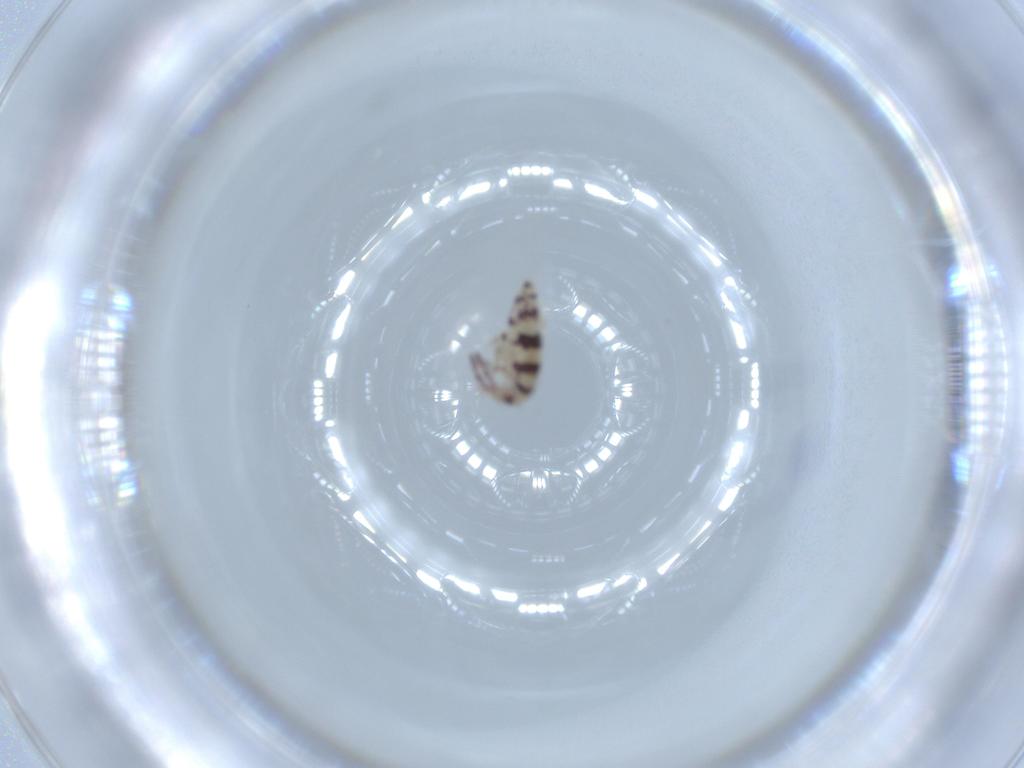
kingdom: Animalia
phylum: Arthropoda
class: Collembola
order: Entomobryomorpha
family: Entomobryidae
